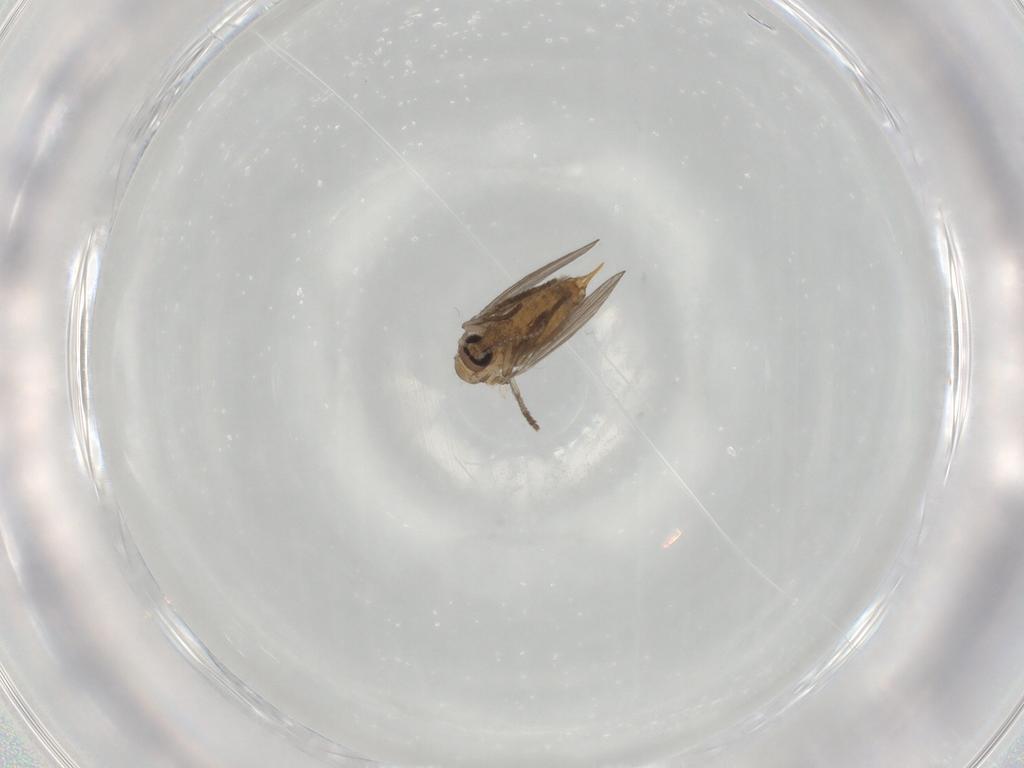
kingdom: Animalia
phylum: Arthropoda
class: Insecta
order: Diptera
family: Psychodidae
